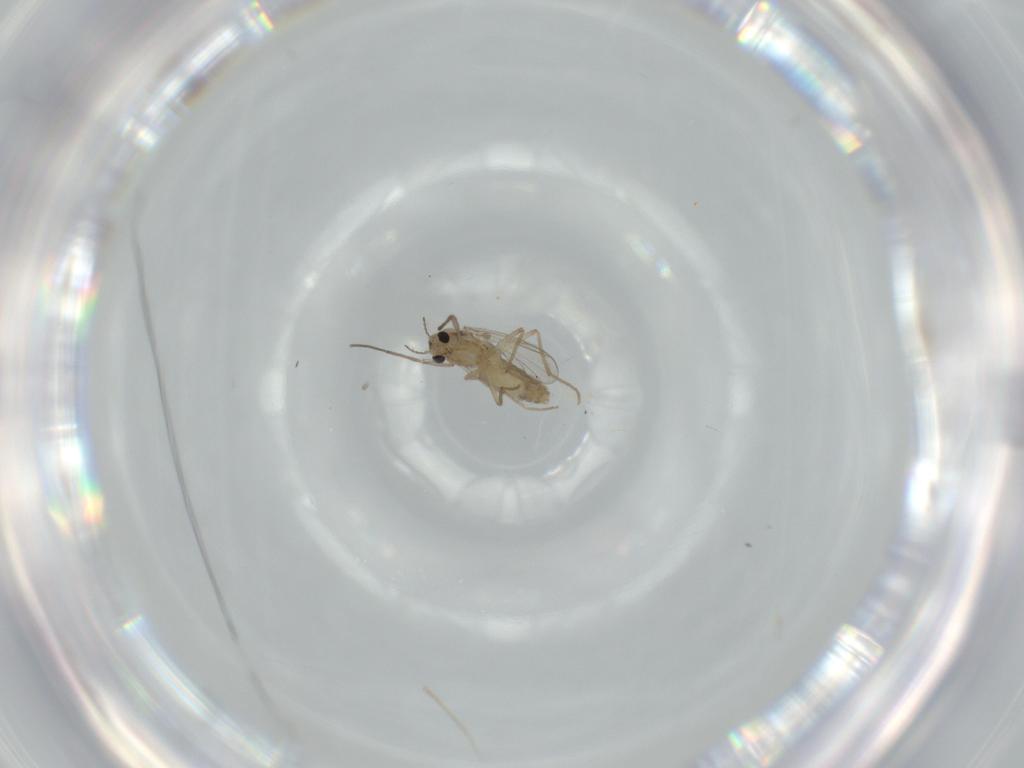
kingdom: Animalia
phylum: Arthropoda
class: Insecta
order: Diptera
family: Chironomidae
